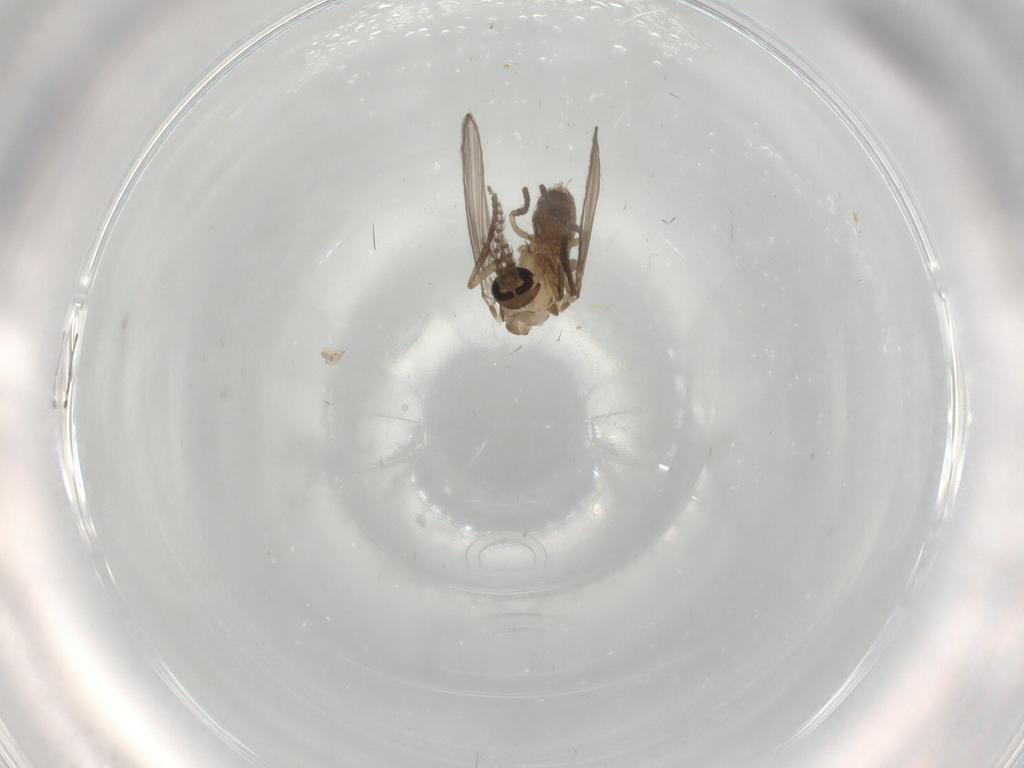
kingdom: Animalia
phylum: Arthropoda
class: Insecta
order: Diptera
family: Psychodidae
